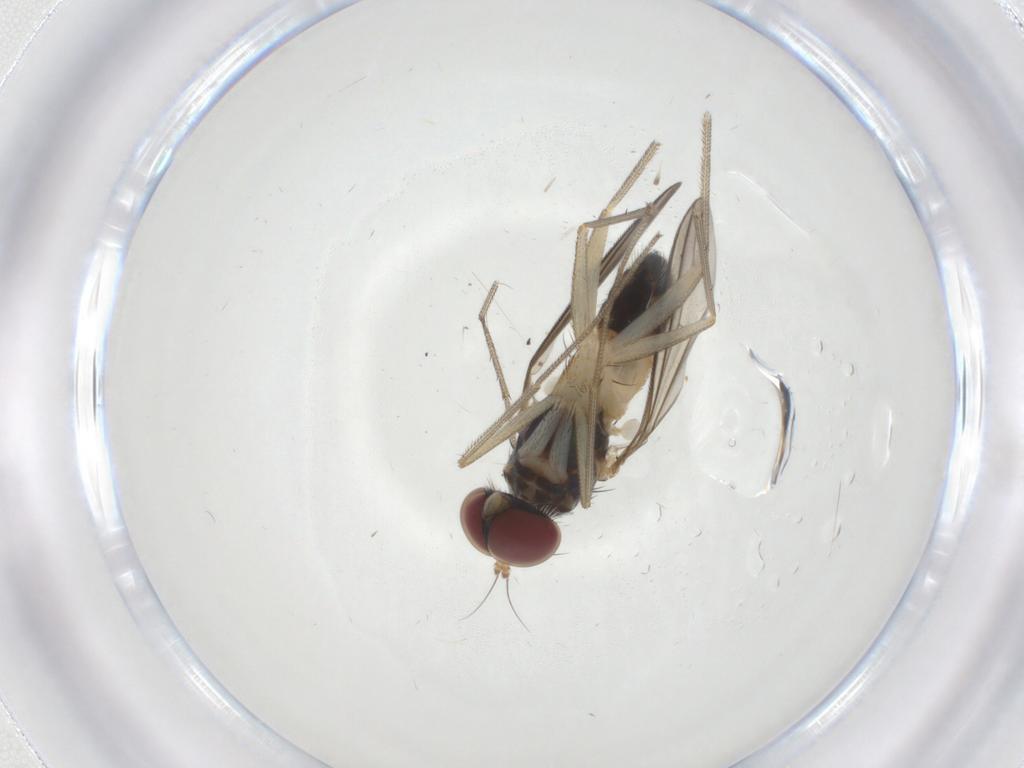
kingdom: Animalia
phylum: Arthropoda
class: Insecta
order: Diptera
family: Dolichopodidae
